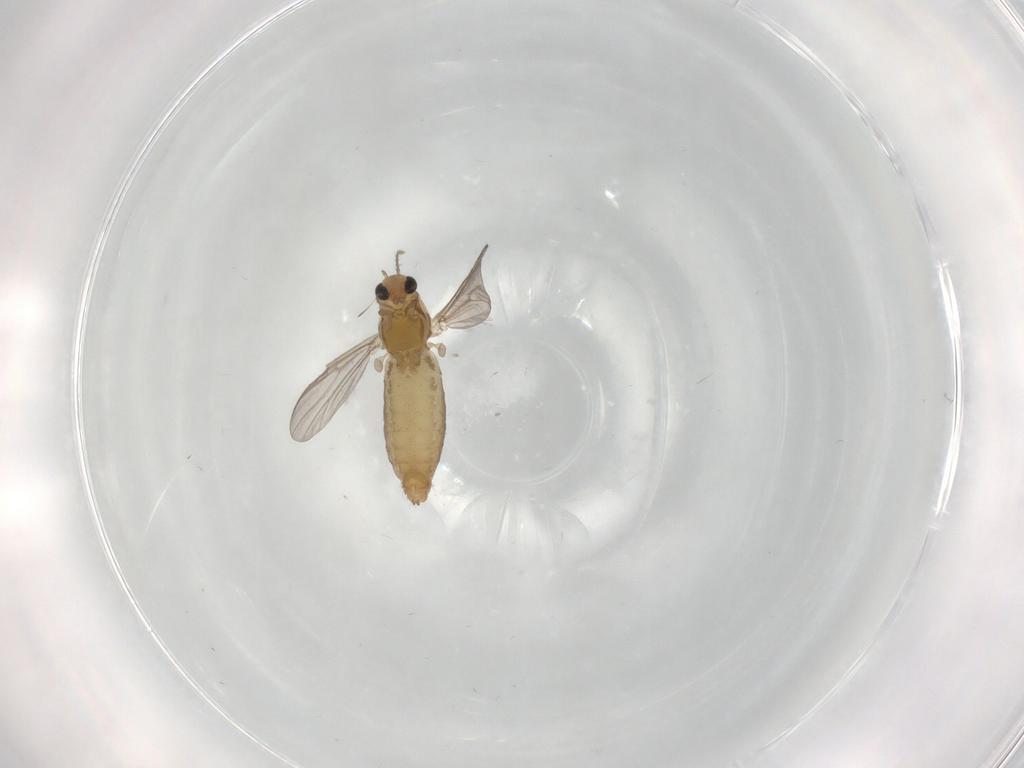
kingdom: Animalia
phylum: Arthropoda
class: Insecta
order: Diptera
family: Chironomidae
